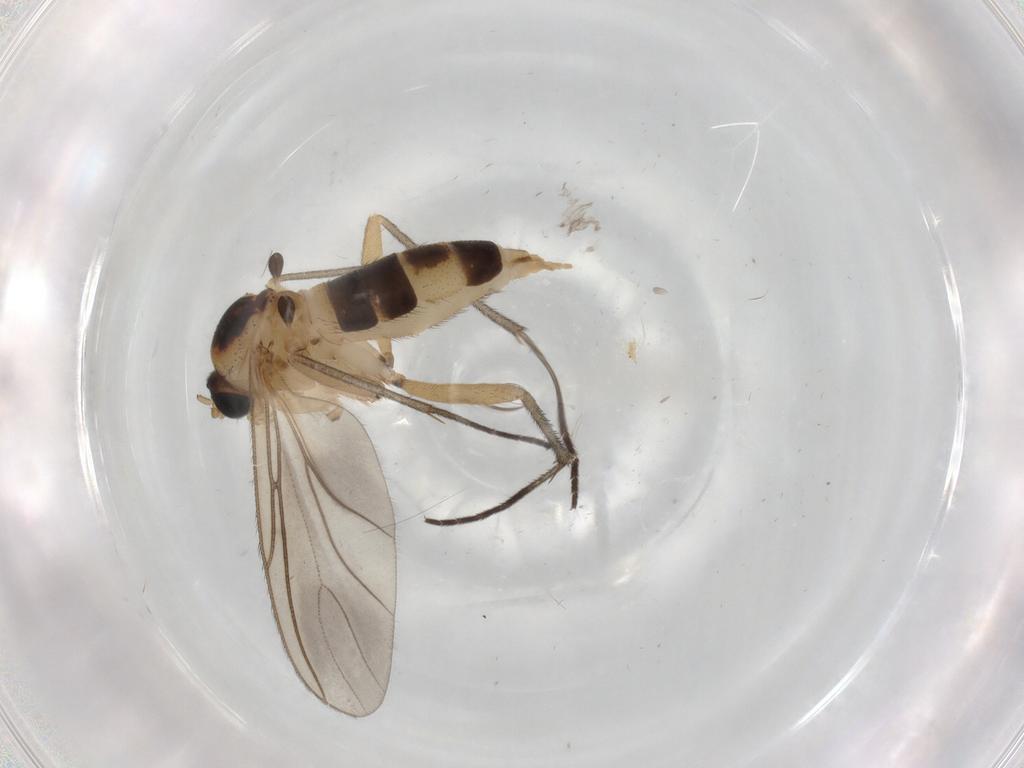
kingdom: Animalia
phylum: Arthropoda
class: Insecta
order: Diptera
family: Sciaridae
